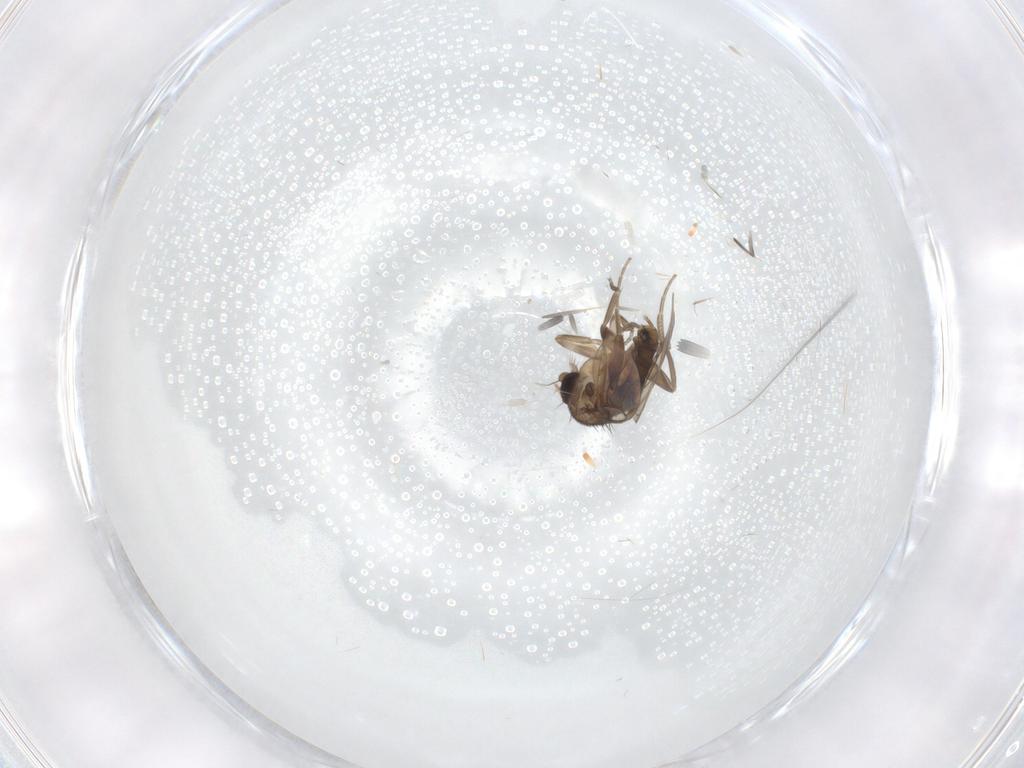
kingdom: Animalia
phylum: Arthropoda
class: Insecta
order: Diptera
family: Phoridae
